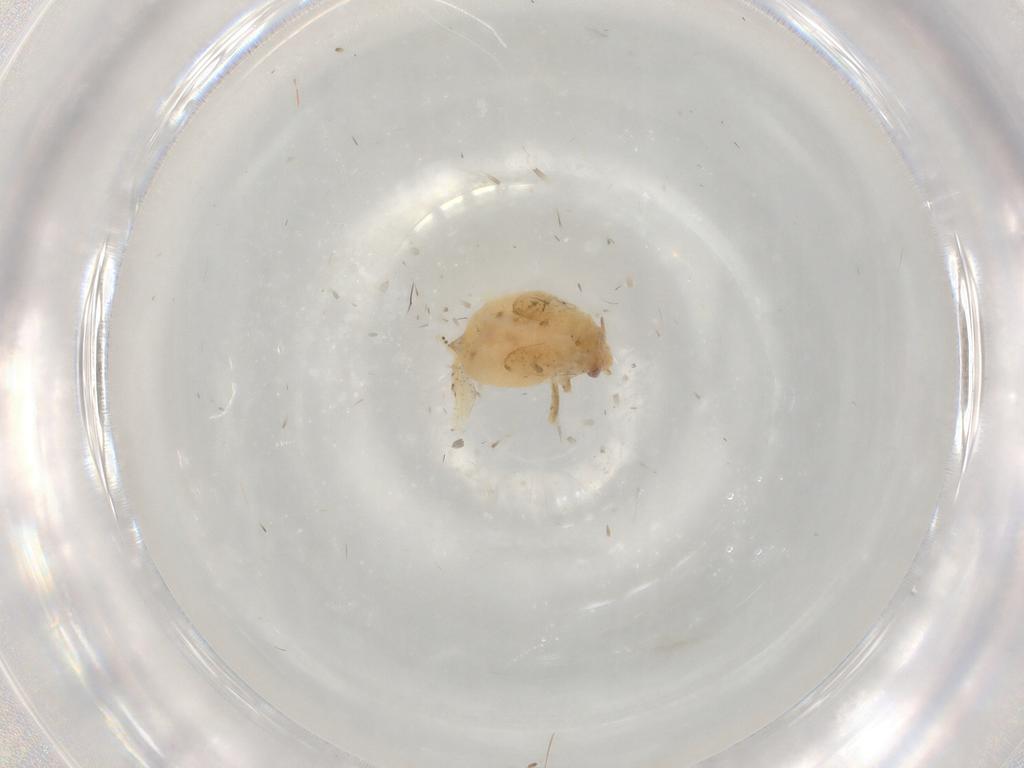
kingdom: Animalia
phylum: Arthropoda
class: Insecta
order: Hymenoptera
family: Braconidae
